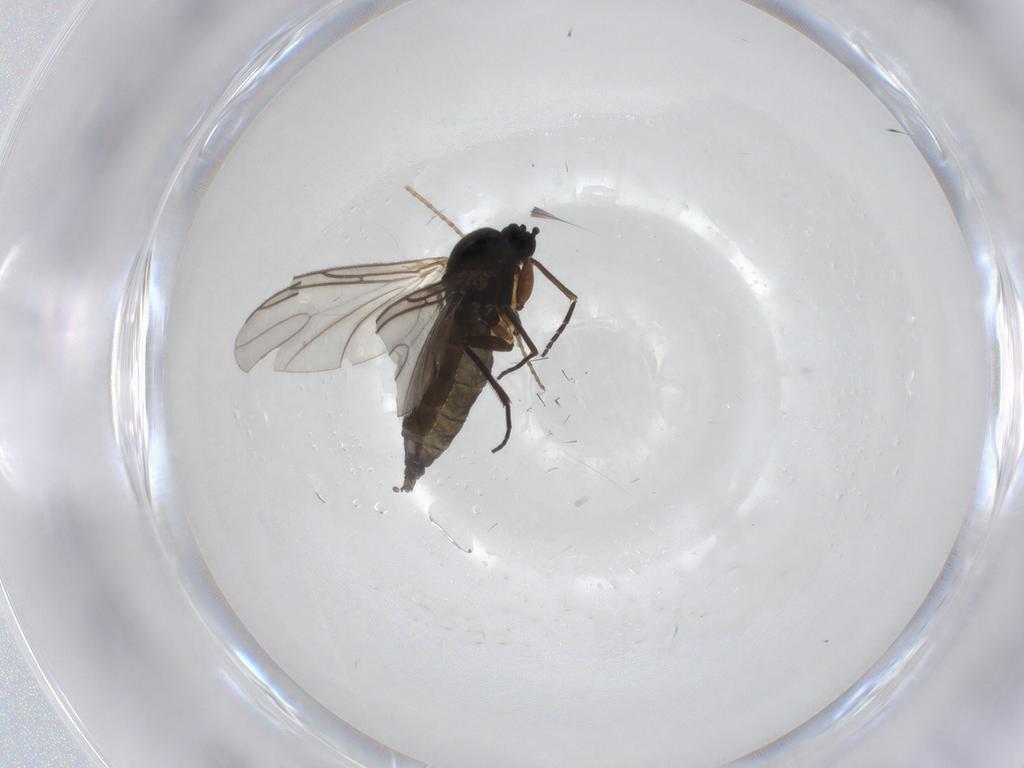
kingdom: Animalia
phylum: Arthropoda
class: Insecta
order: Diptera
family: Sciaridae
